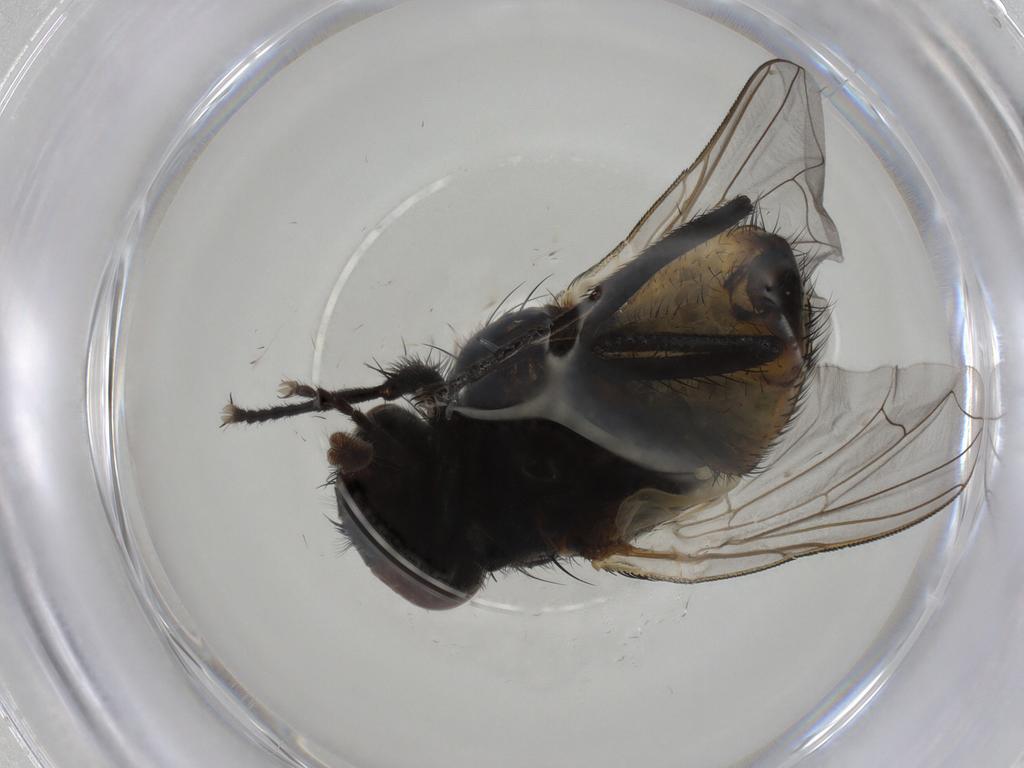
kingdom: Animalia
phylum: Arthropoda
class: Insecta
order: Diptera
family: Muscidae
